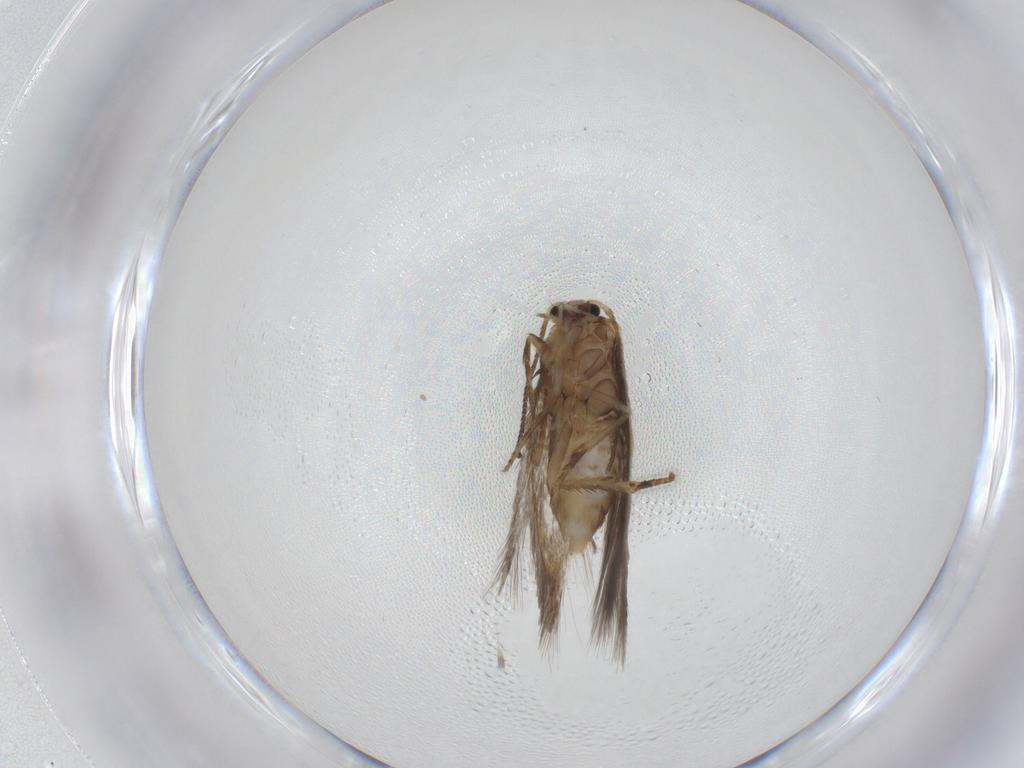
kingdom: Animalia
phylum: Arthropoda
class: Insecta
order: Lepidoptera
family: Nepticulidae
